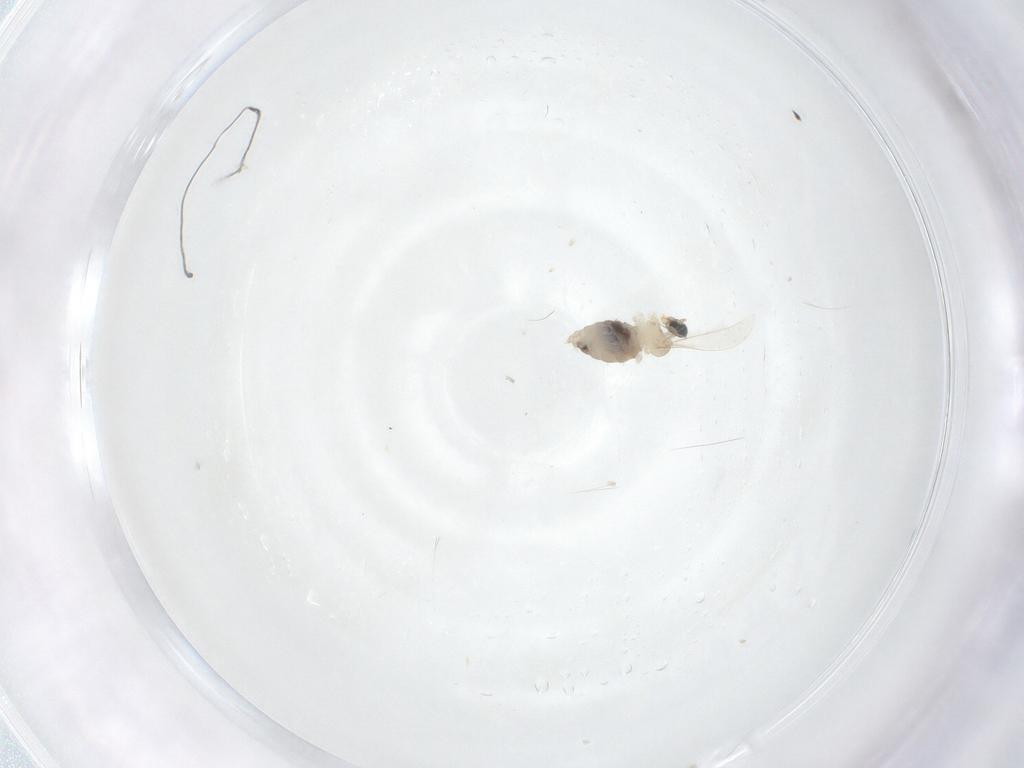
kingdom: Animalia
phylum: Arthropoda
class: Insecta
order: Diptera
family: Cecidomyiidae
